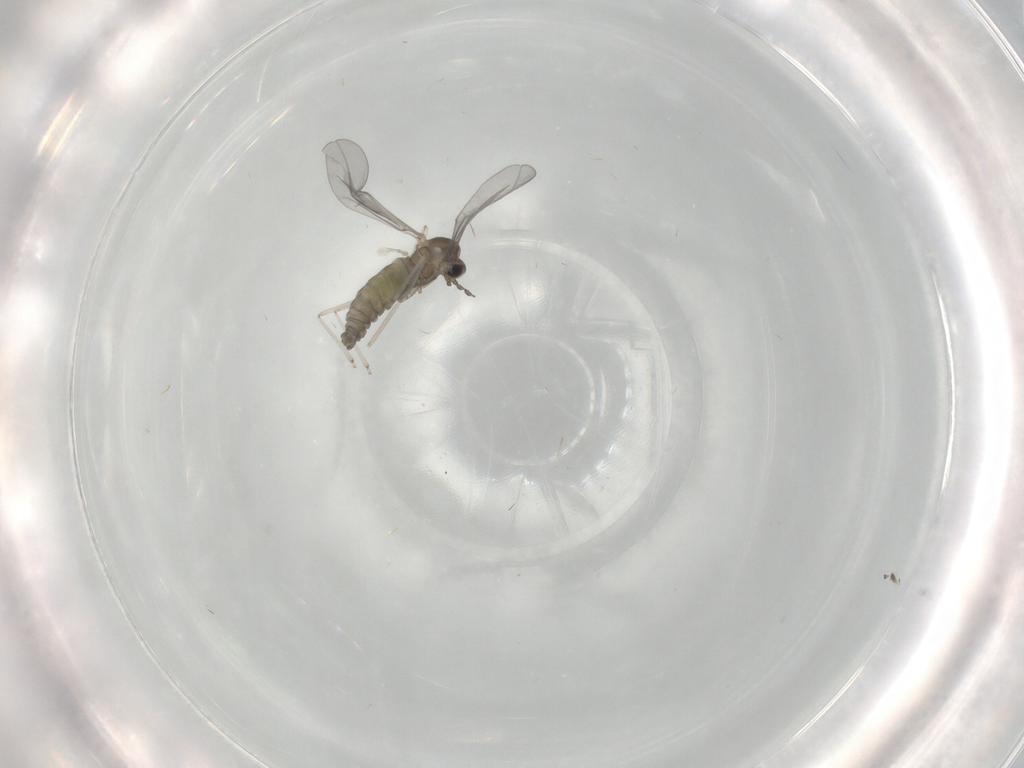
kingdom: Animalia
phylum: Arthropoda
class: Insecta
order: Diptera
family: Cecidomyiidae
